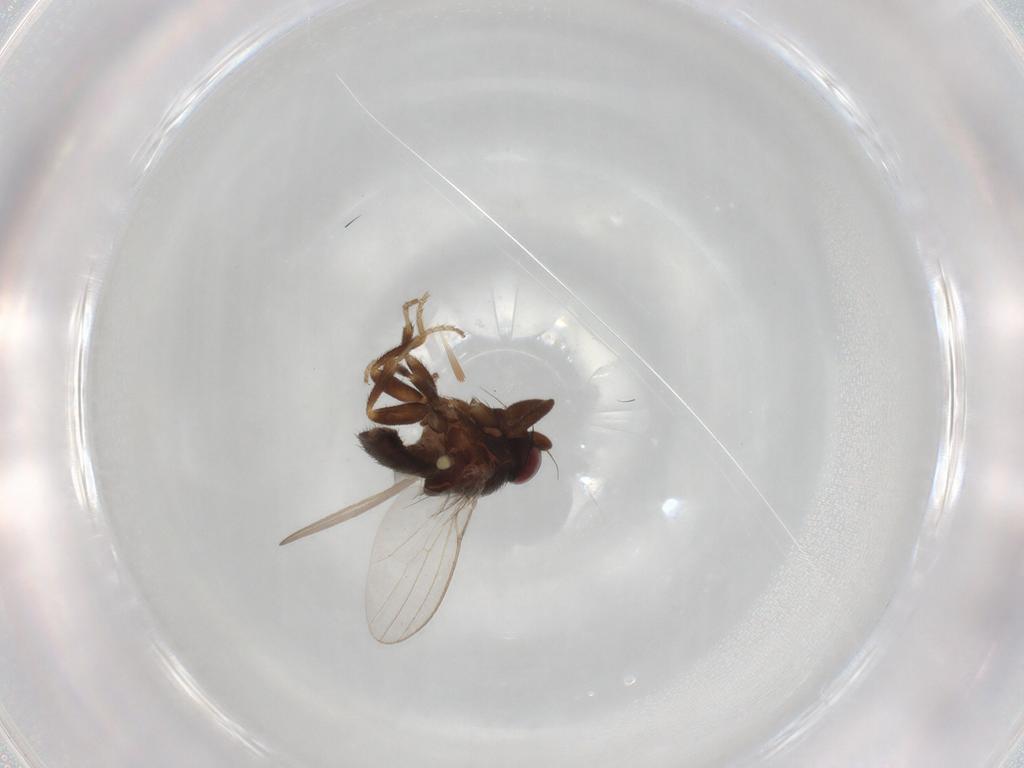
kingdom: Animalia
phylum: Arthropoda
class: Insecta
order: Diptera
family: Milichiidae
